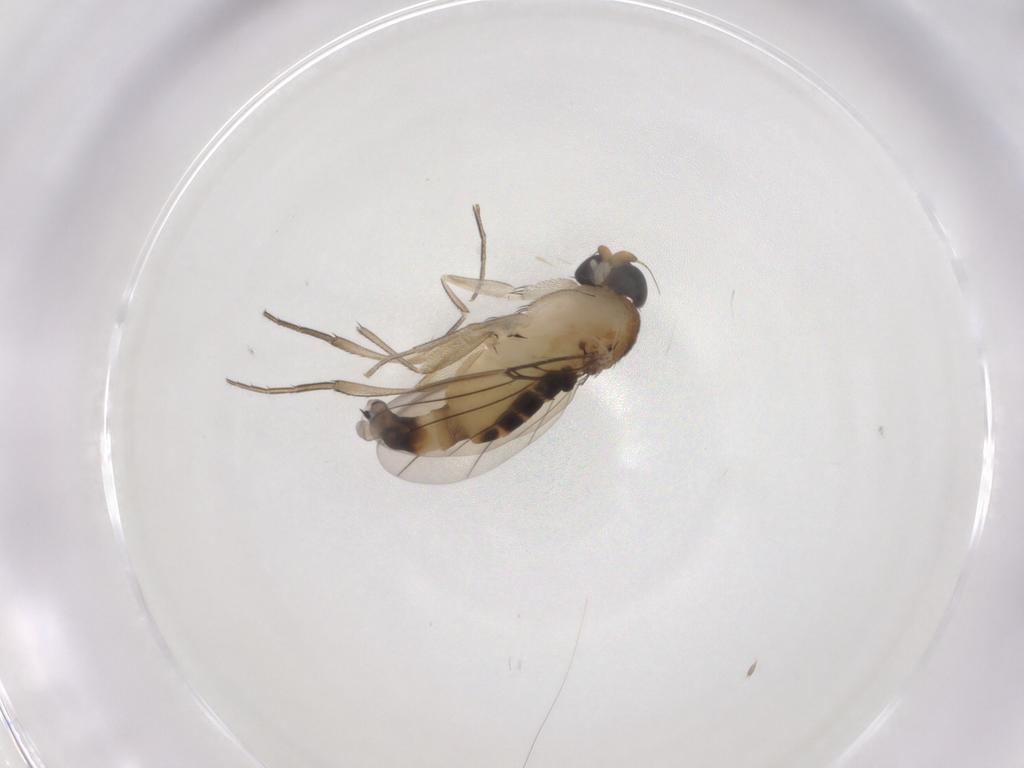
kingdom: Animalia
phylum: Arthropoda
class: Insecta
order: Diptera
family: Phoridae
